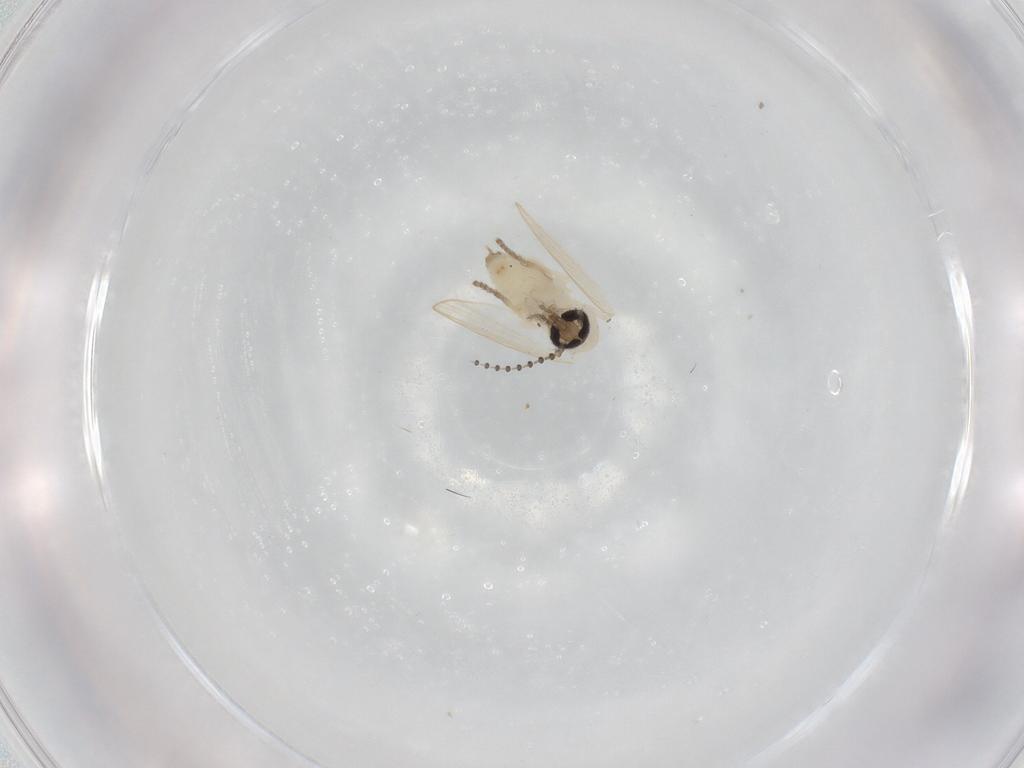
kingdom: Animalia
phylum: Arthropoda
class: Insecta
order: Diptera
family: Psychodidae
